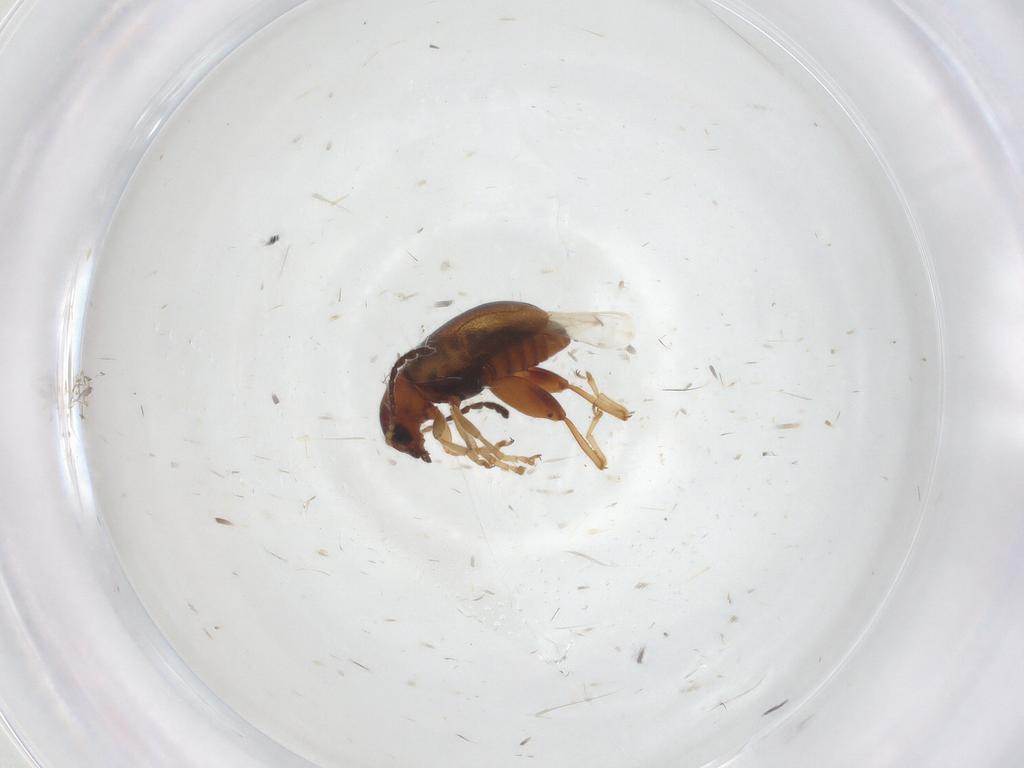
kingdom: Animalia
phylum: Arthropoda
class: Insecta
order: Coleoptera
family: Chrysomelidae
